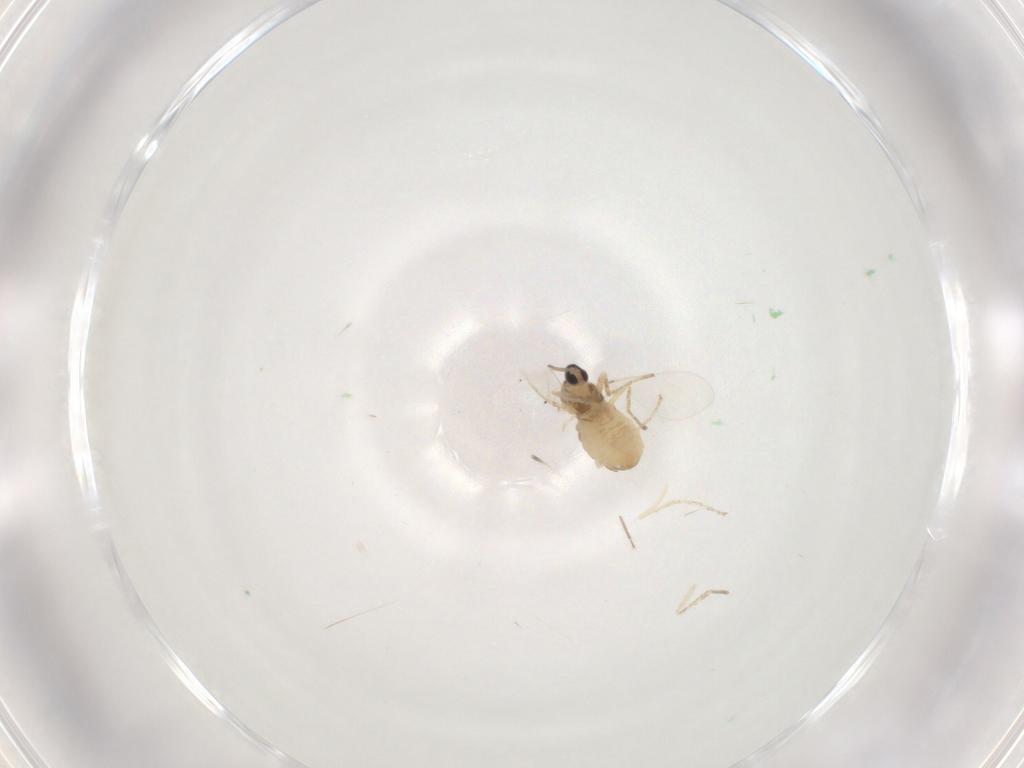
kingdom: Animalia
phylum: Arthropoda
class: Insecta
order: Diptera
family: Cecidomyiidae
